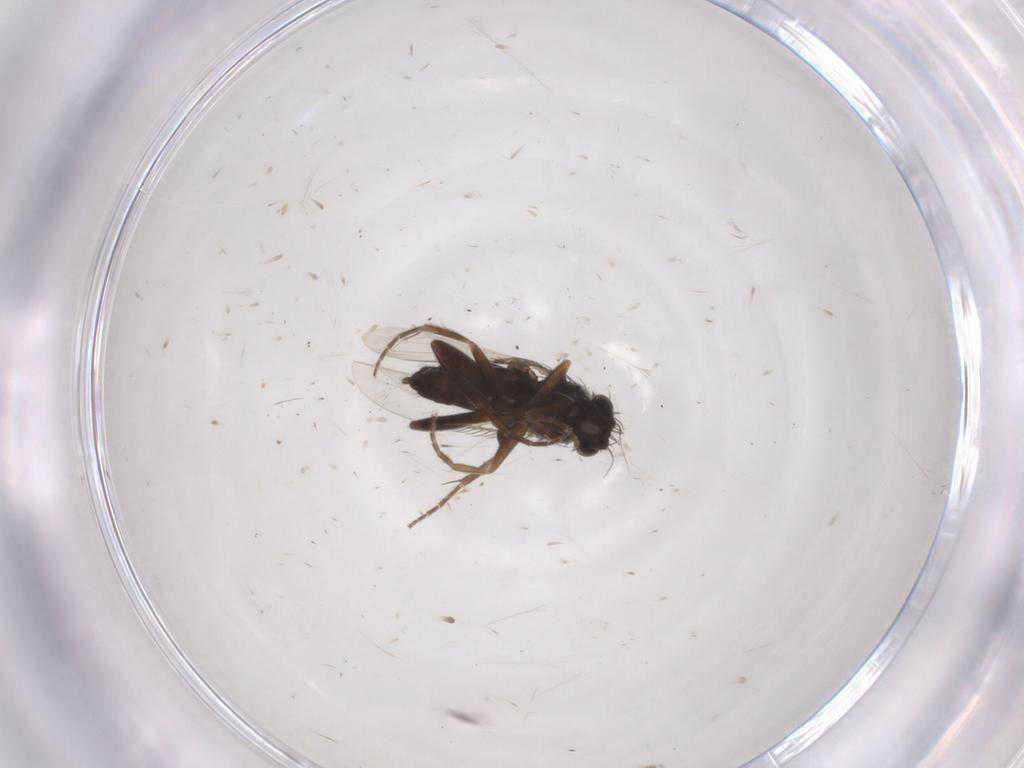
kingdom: Animalia
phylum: Arthropoda
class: Insecta
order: Diptera
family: Phoridae
